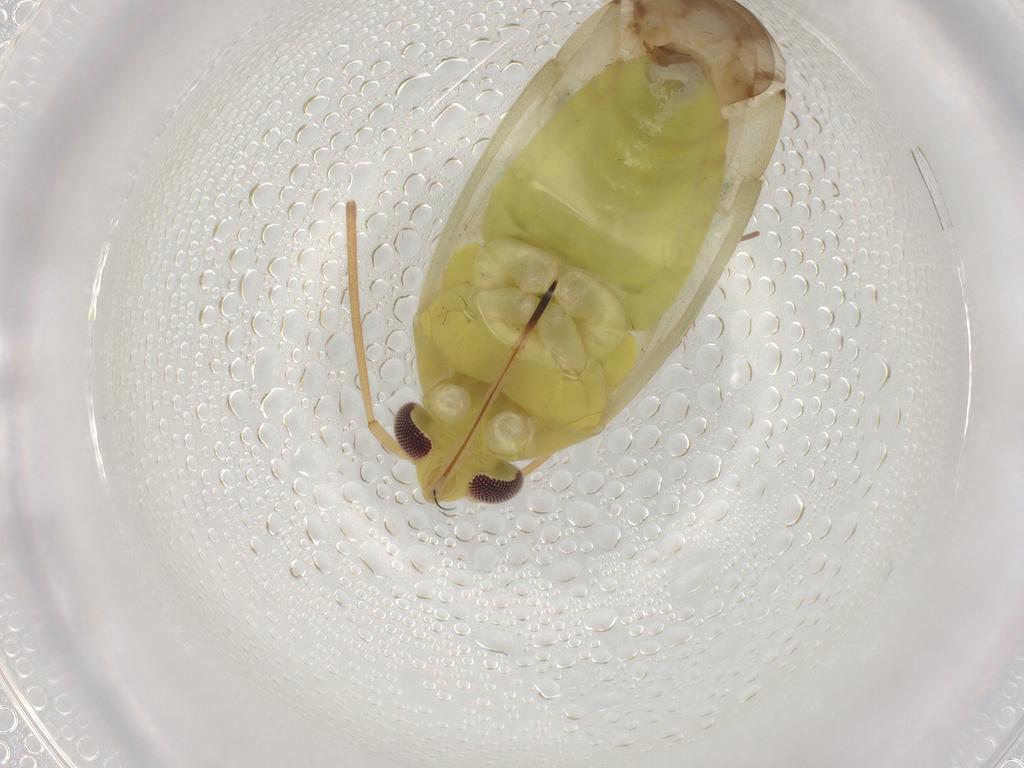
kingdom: Animalia
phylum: Arthropoda
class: Insecta
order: Hemiptera
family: Miridae
